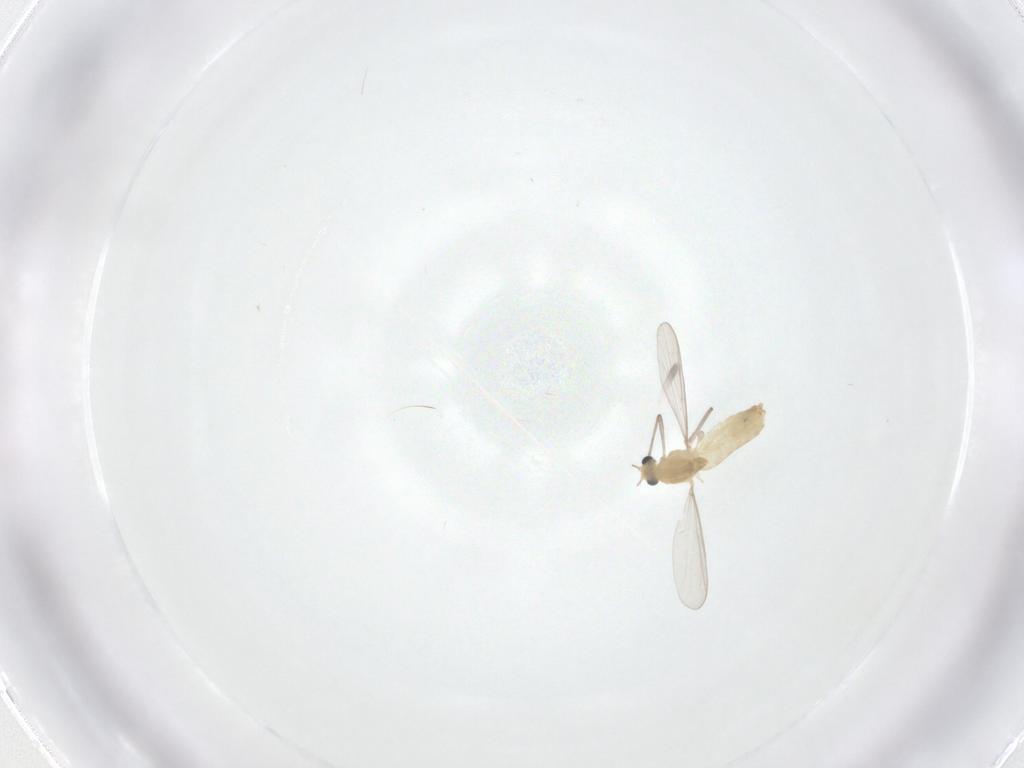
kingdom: Animalia
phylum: Arthropoda
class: Insecta
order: Diptera
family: Psychodidae
